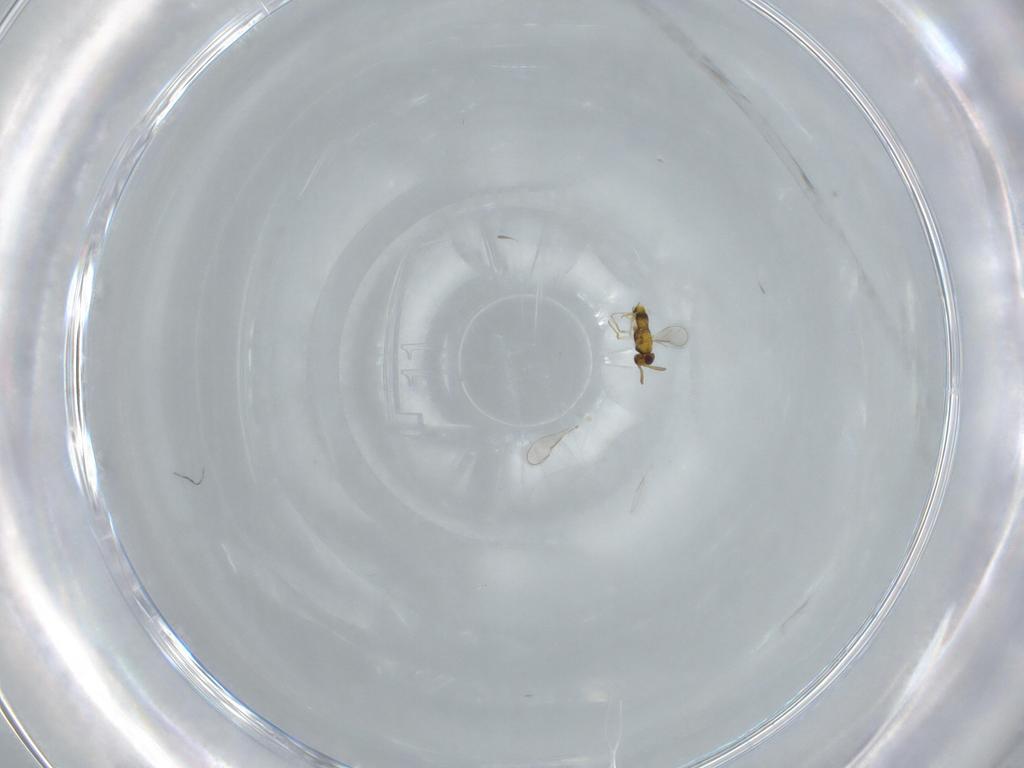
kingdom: Animalia
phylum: Arthropoda
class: Insecta
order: Hymenoptera
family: Aphelinidae
